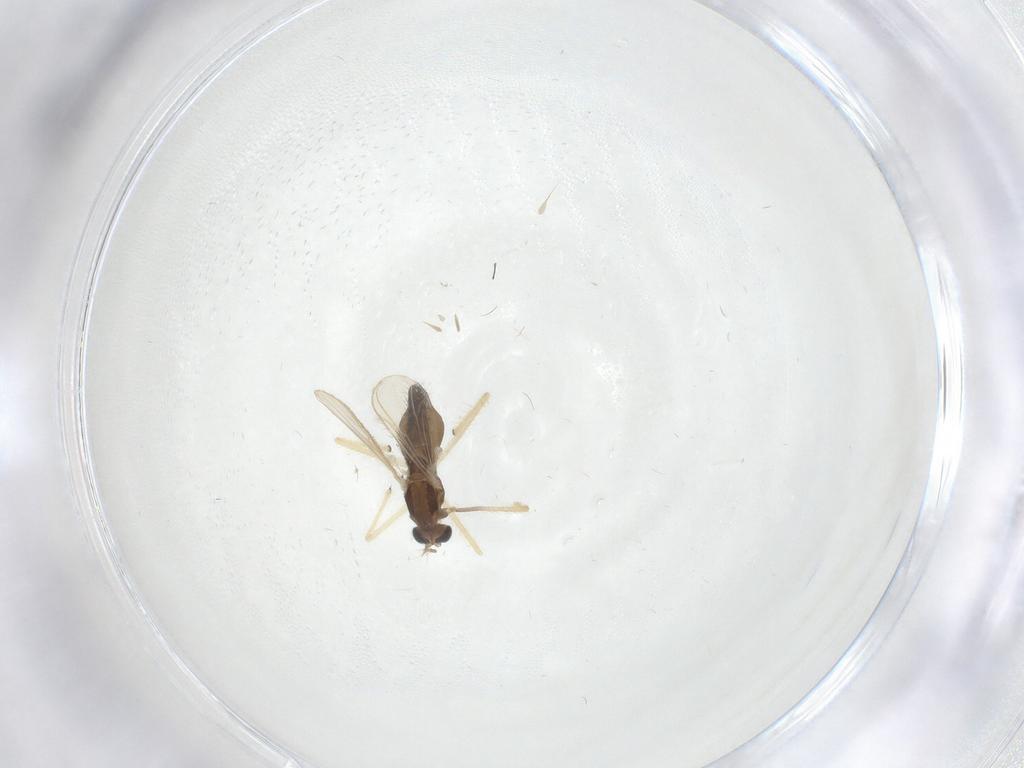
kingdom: Animalia
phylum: Arthropoda
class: Insecta
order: Diptera
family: Chironomidae
